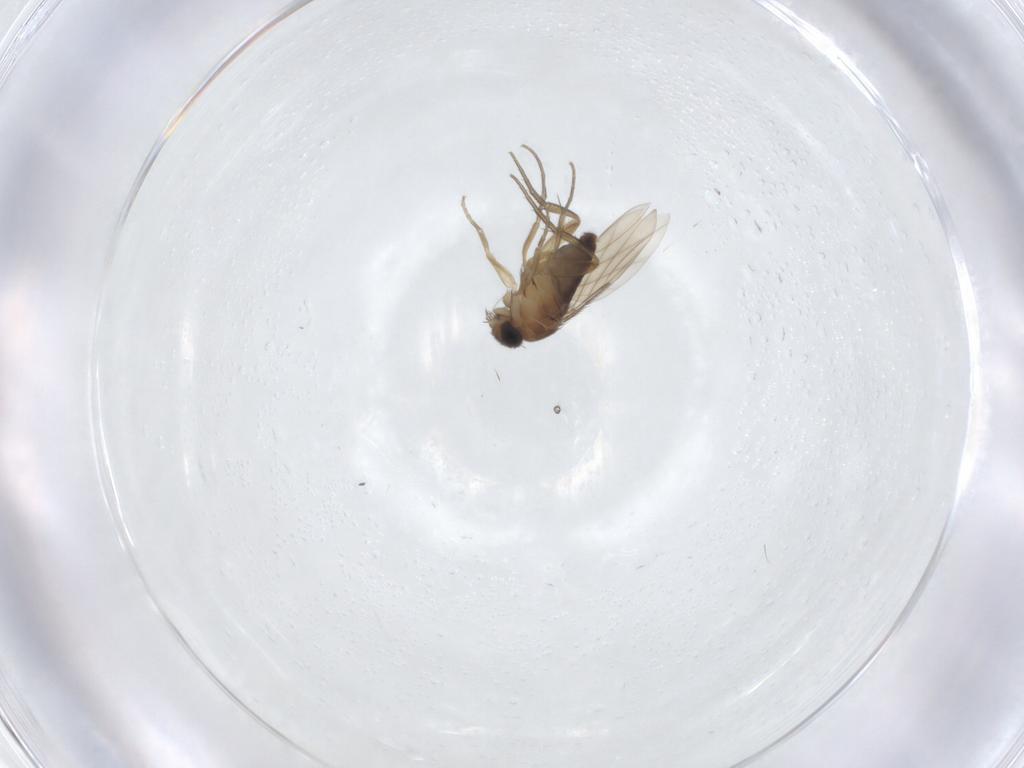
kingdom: Animalia
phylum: Arthropoda
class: Insecta
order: Diptera
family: Phoridae
